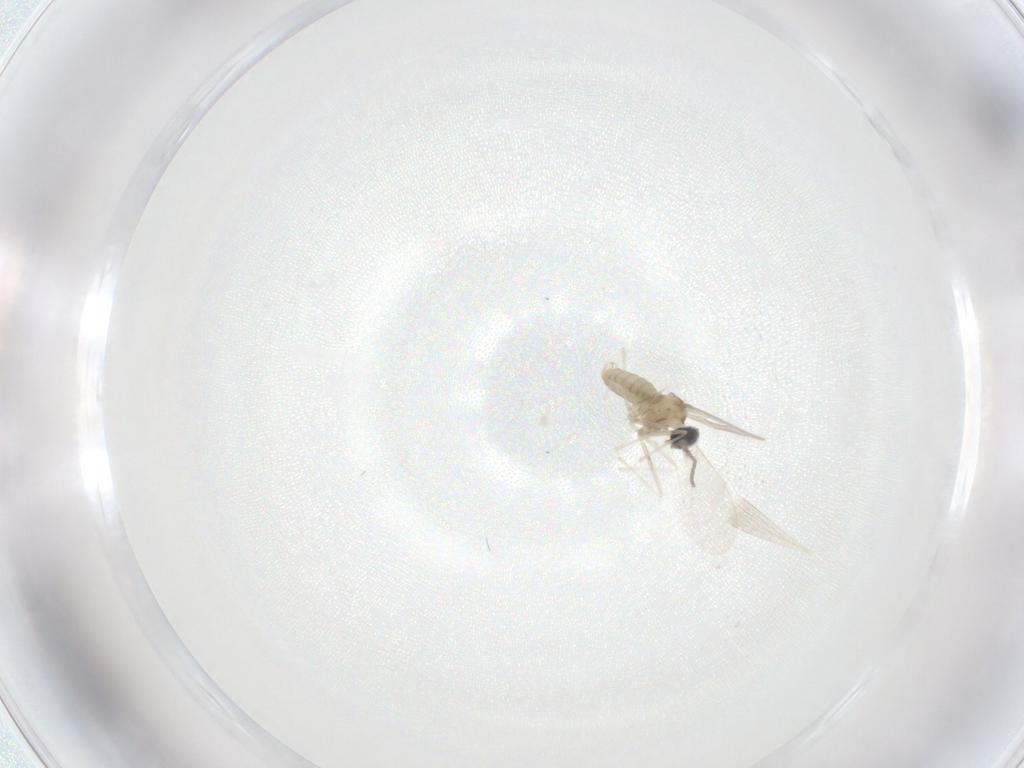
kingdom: Animalia
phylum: Arthropoda
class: Insecta
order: Diptera
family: Cecidomyiidae
